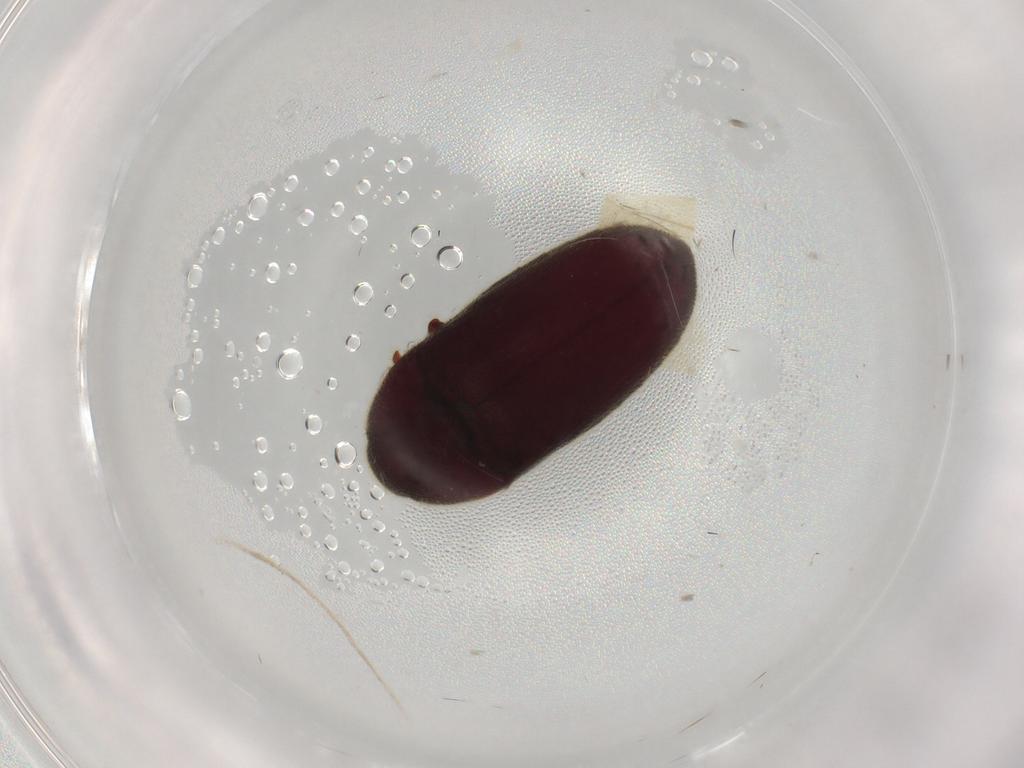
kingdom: Animalia
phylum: Arthropoda
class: Insecta
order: Coleoptera
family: Throscidae
